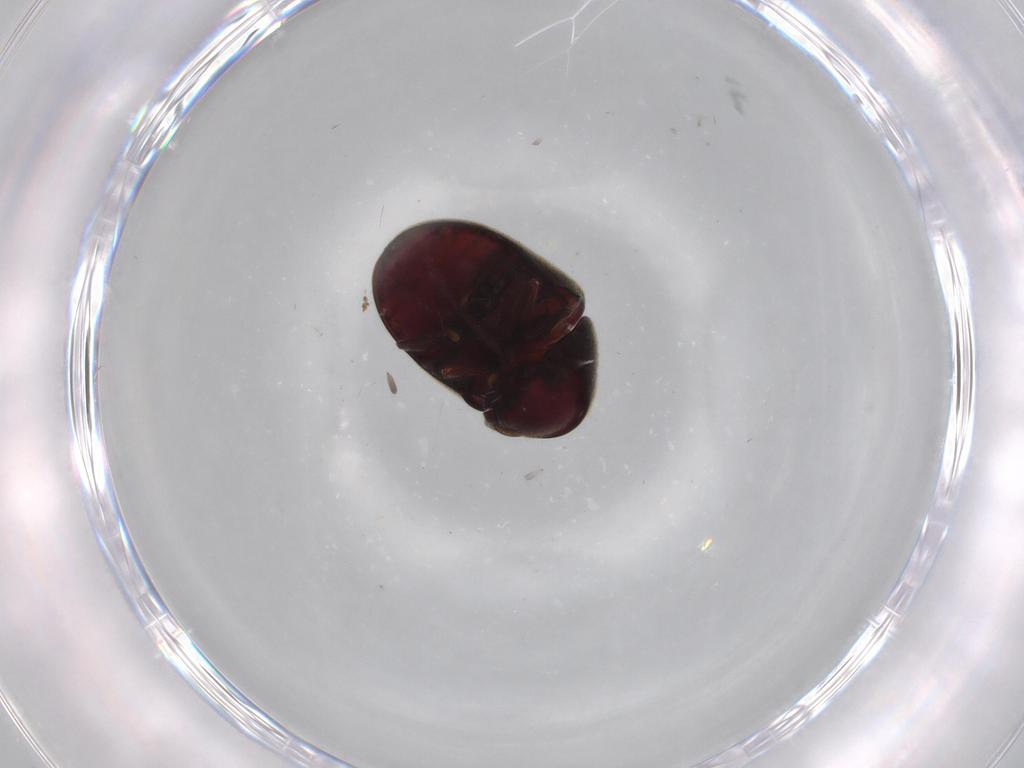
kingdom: Animalia
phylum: Arthropoda
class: Insecta
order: Coleoptera
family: Ptinidae
